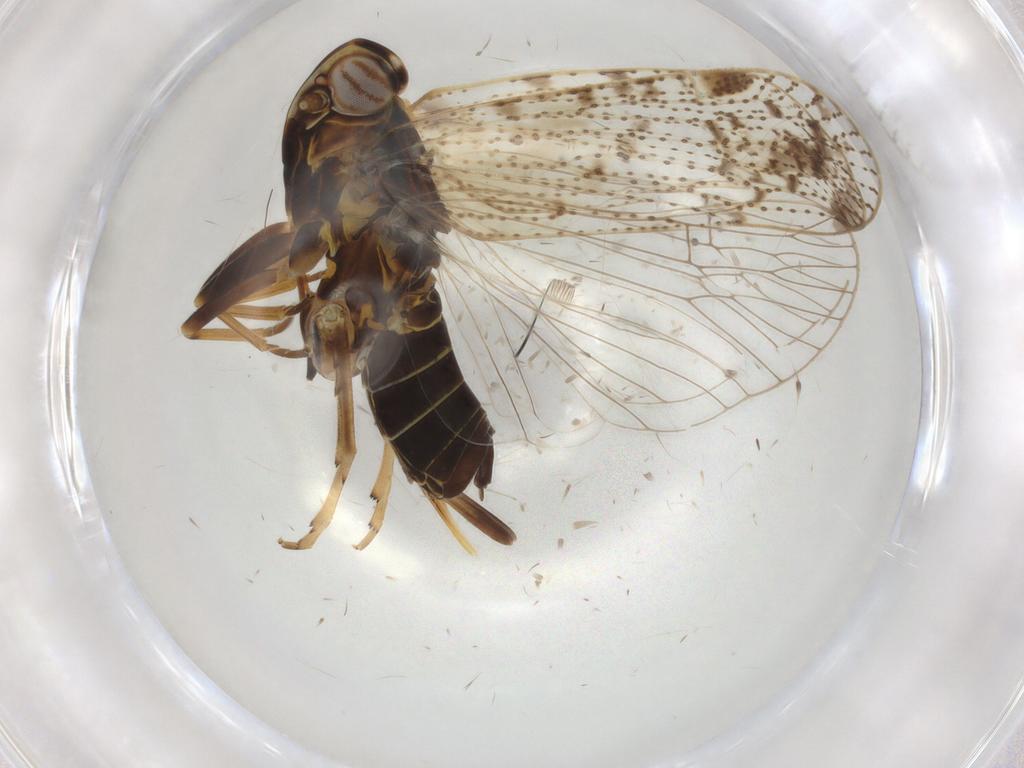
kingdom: Animalia
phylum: Arthropoda
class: Insecta
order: Hemiptera
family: Cixiidae
